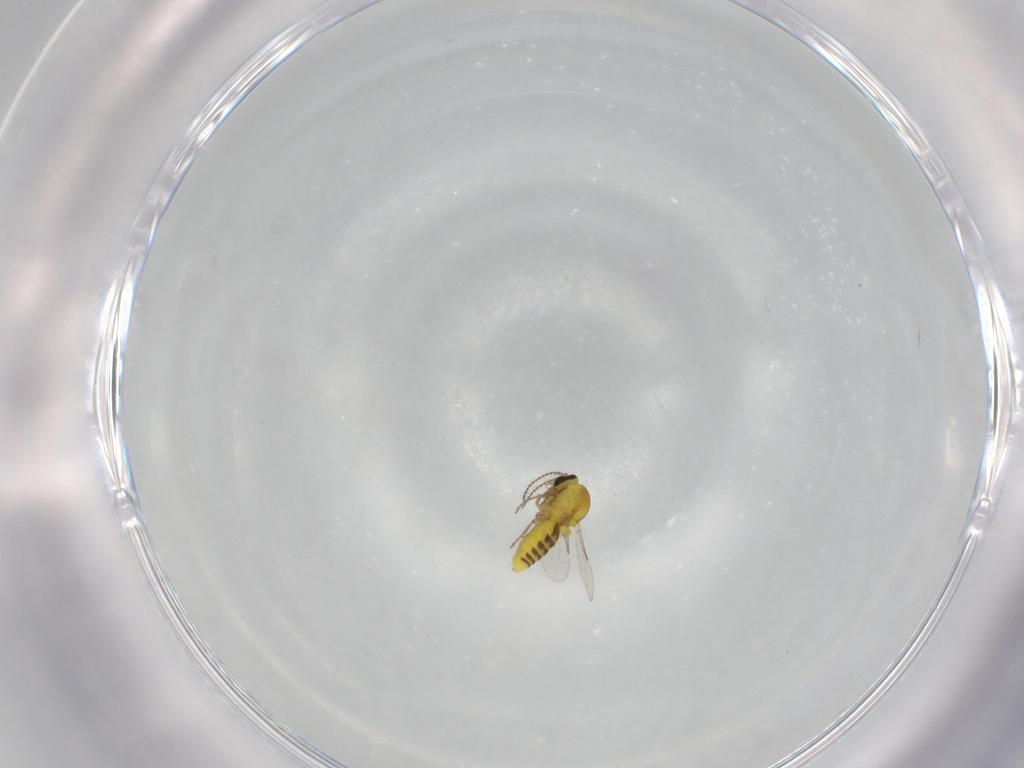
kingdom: Animalia
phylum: Arthropoda
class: Insecta
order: Diptera
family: Ceratopogonidae
